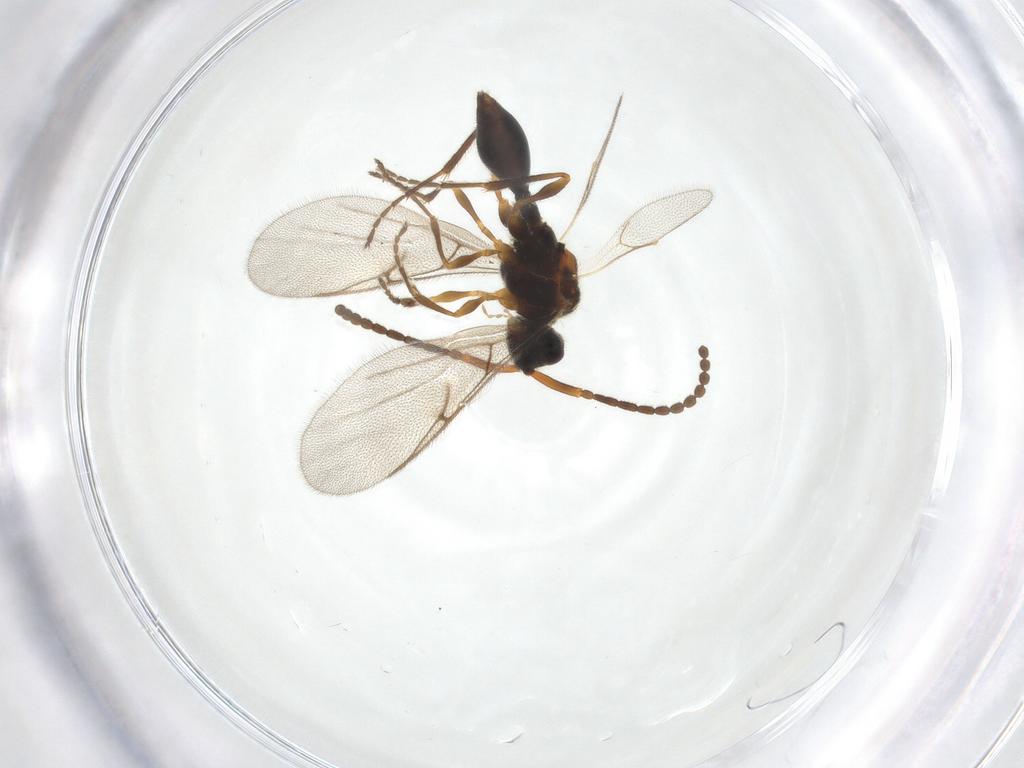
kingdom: Animalia
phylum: Arthropoda
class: Insecta
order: Hymenoptera
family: Diapriidae
